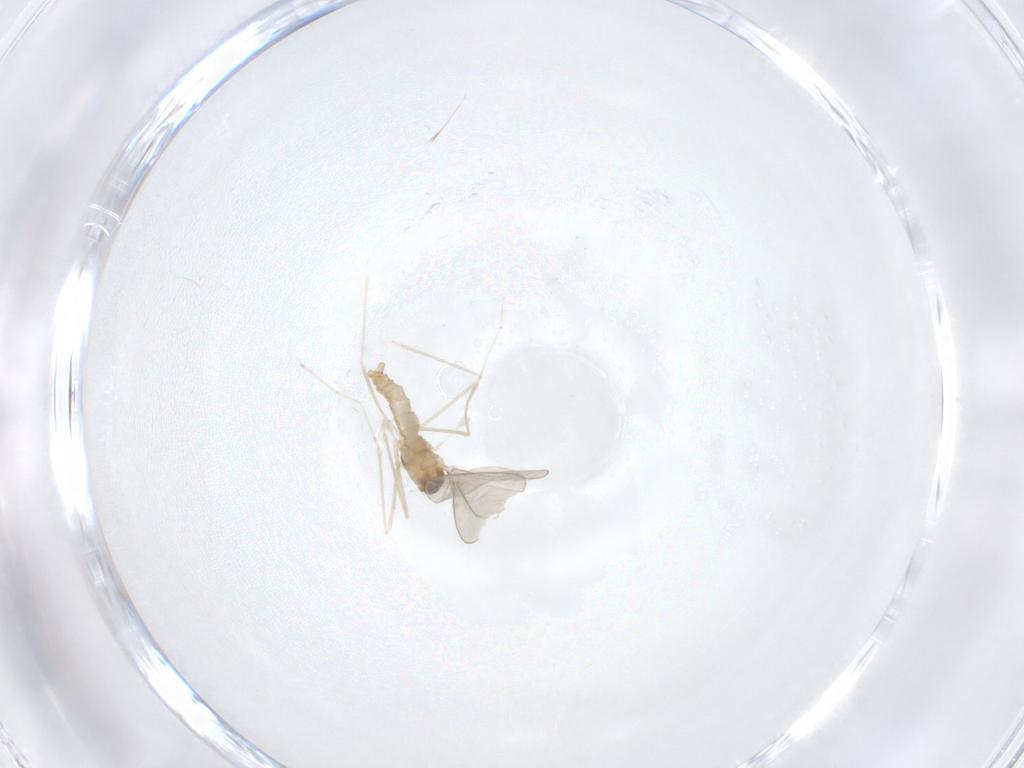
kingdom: Animalia
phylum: Arthropoda
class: Insecta
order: Diptera
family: Cecidomyiidae
